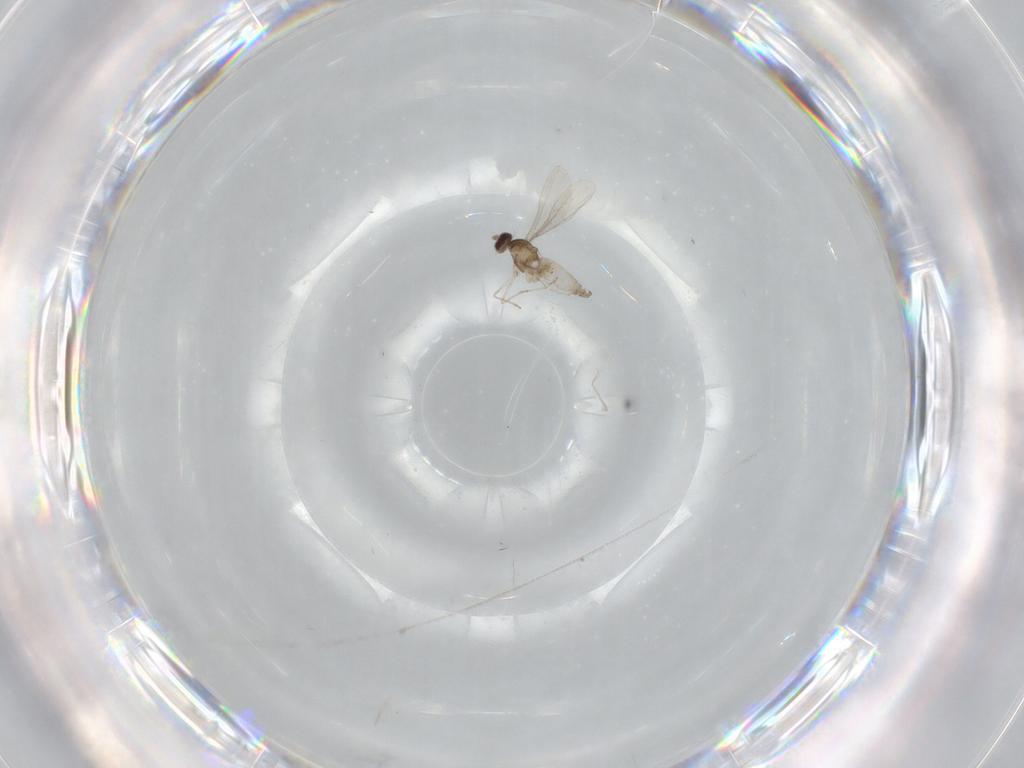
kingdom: Animalia
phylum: Arthropoda
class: Insecta
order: Diptera
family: Cecidomyiidae
